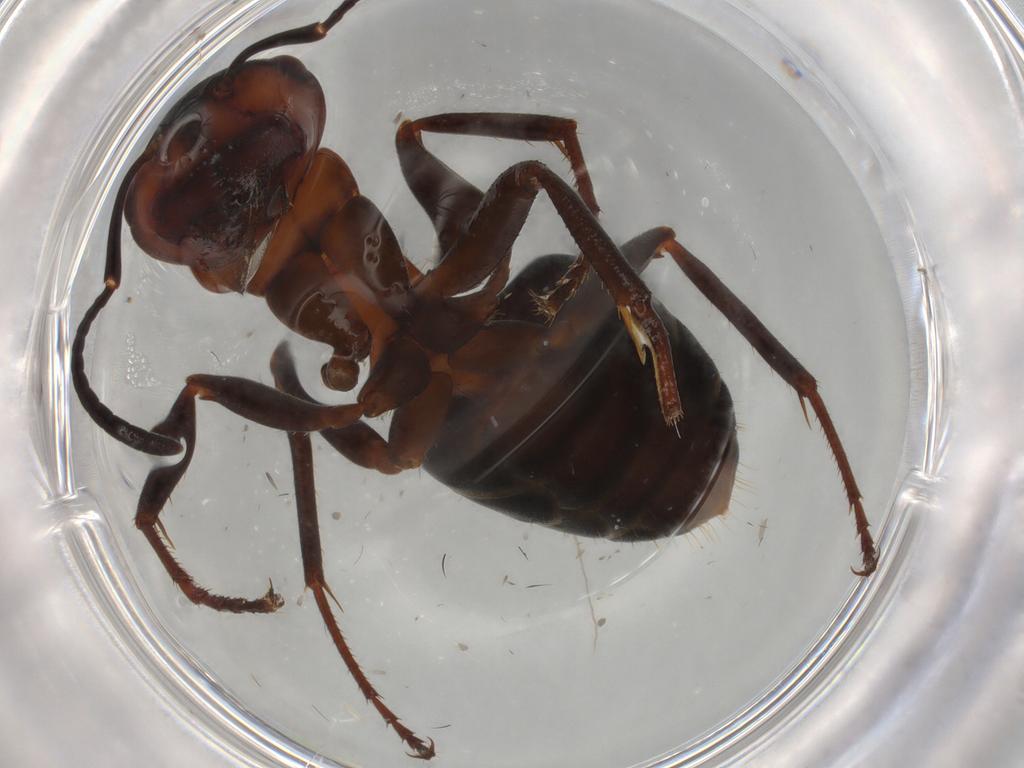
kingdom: Animalia
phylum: Arthropoda
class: Insecta
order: Hymenoptera
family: Formicidae
